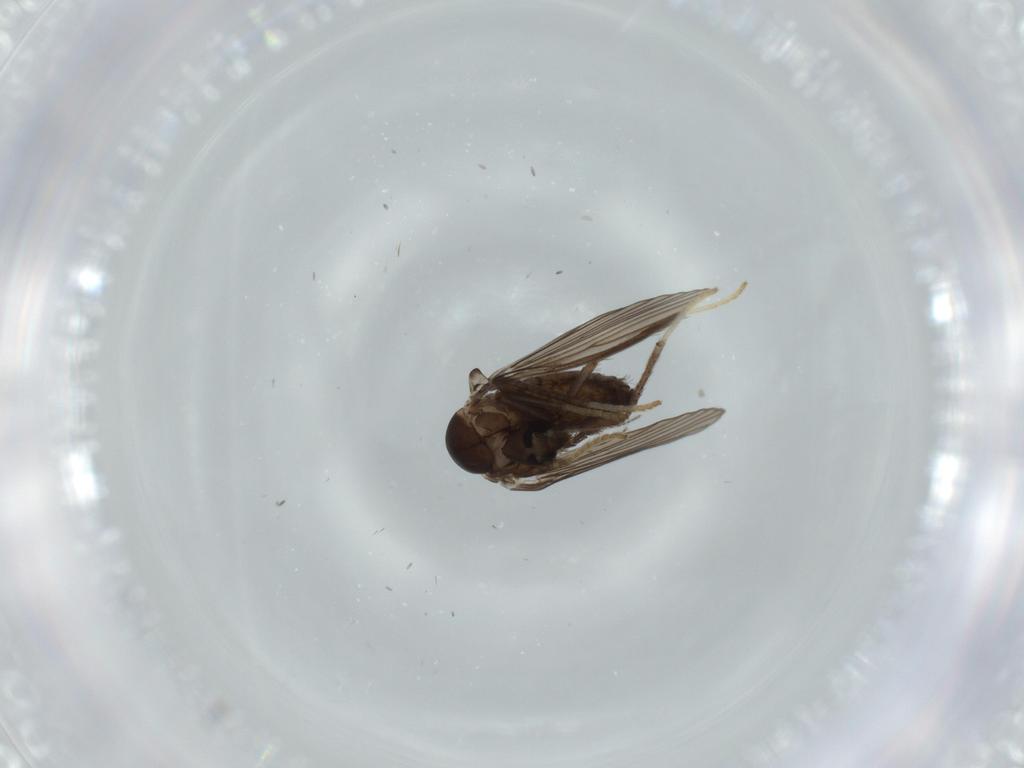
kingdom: Animalia
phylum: Arthropoda
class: Insecta
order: Diptera
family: Psychodidae
